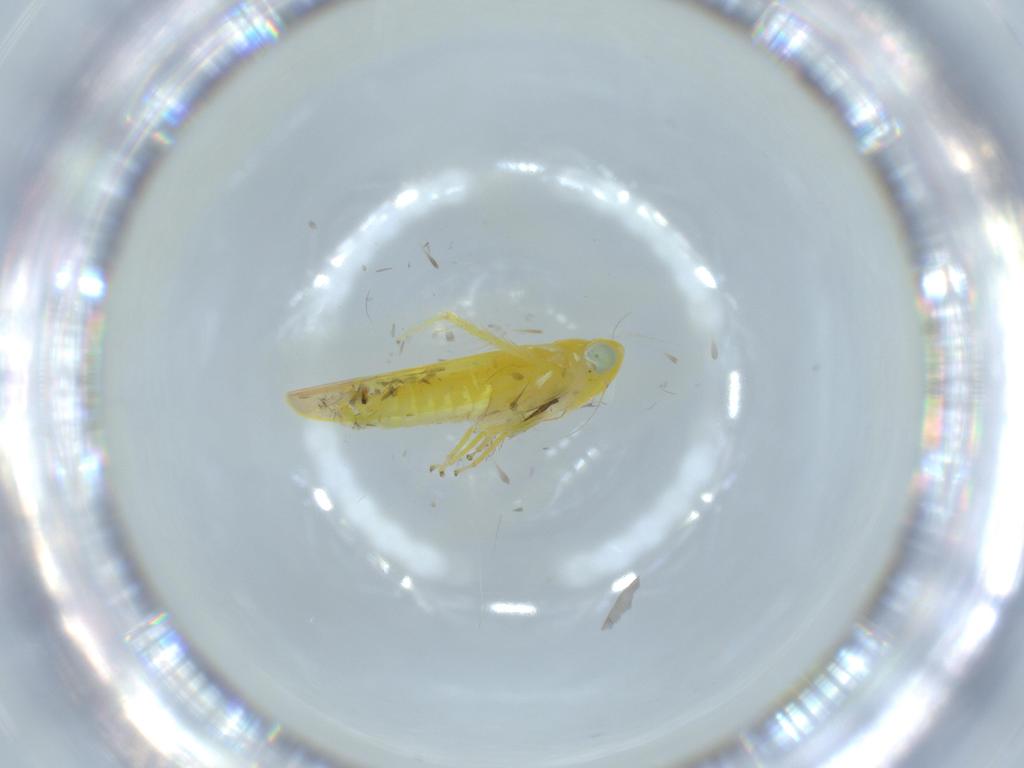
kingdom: Animalia
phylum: Arthropoda
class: Insecta
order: Hemiptera
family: Cicadellidae
